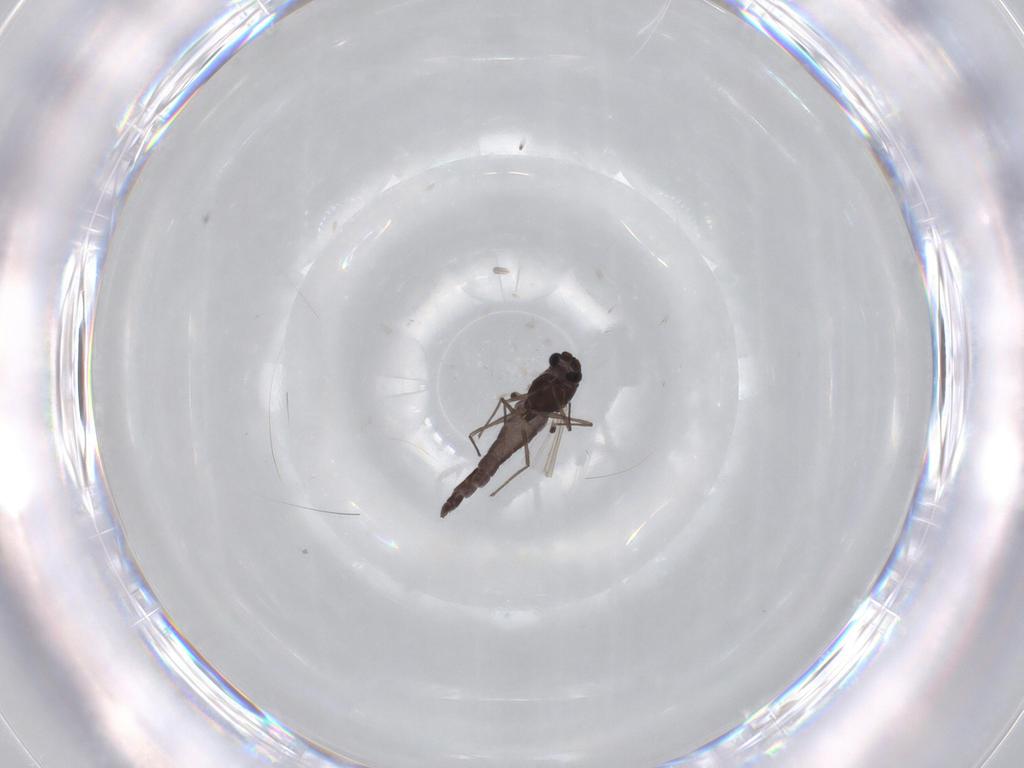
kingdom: Animalia
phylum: Arthropoda
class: Insecta
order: Diptera
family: Chironomidae
